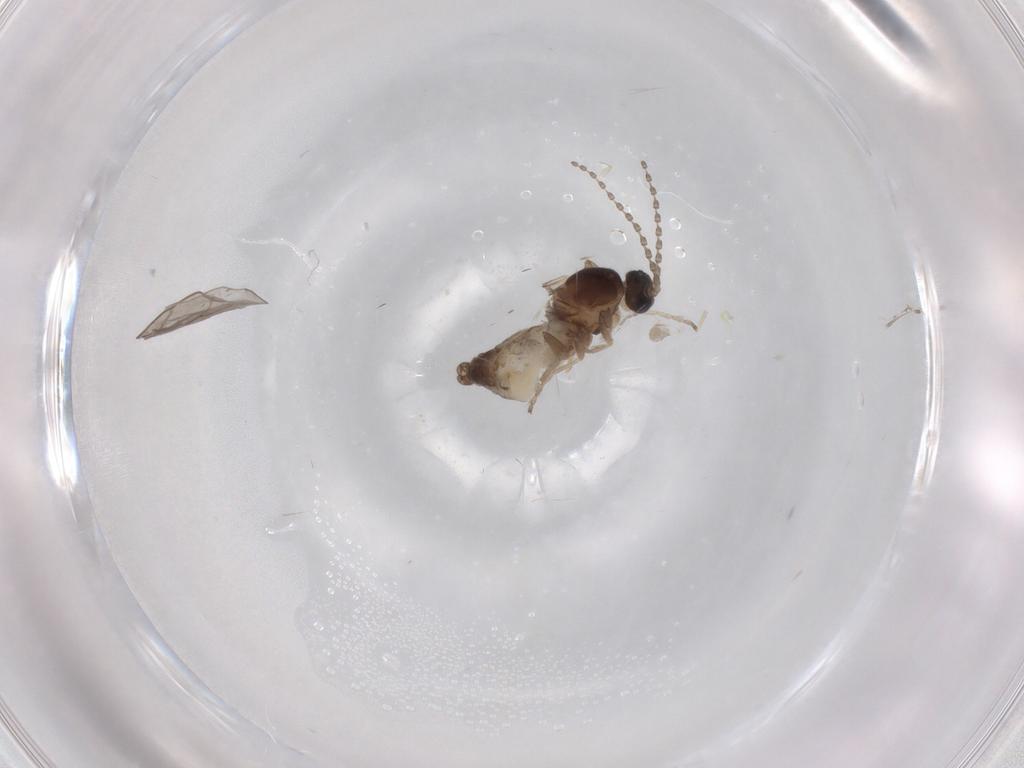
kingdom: Animalia
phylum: Arthropoda
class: Insecta
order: Diptera
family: Cecidomyiidae
